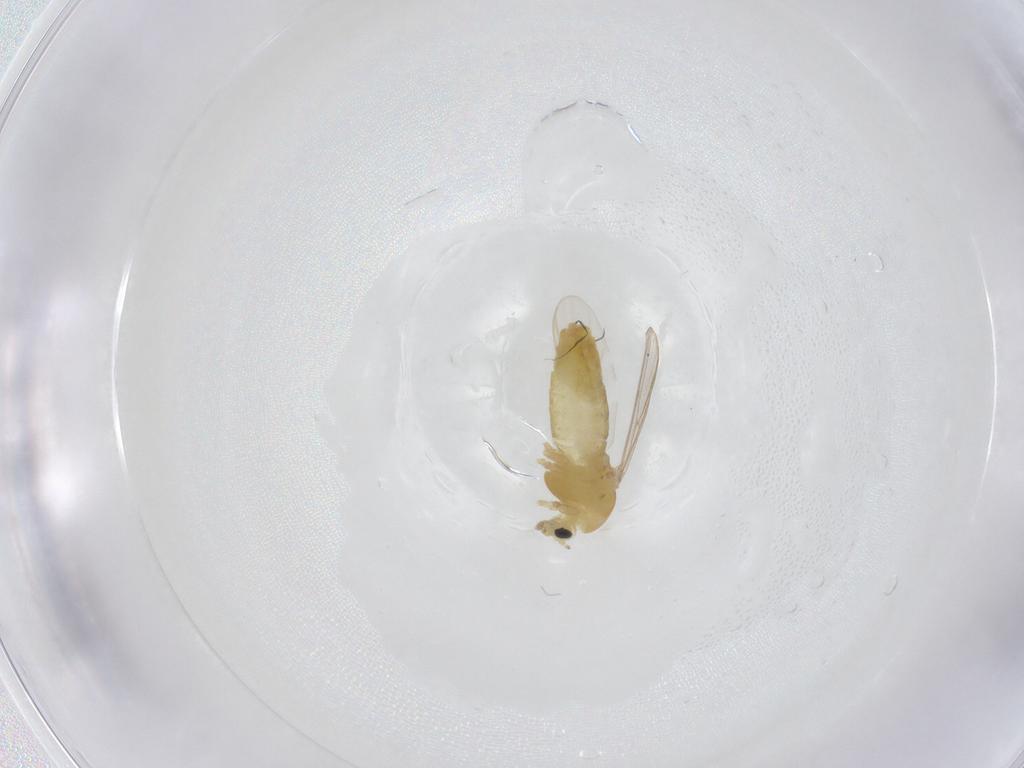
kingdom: Animalia
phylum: Arthropoda
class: Insecta
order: Diptera
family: Chironomidae
